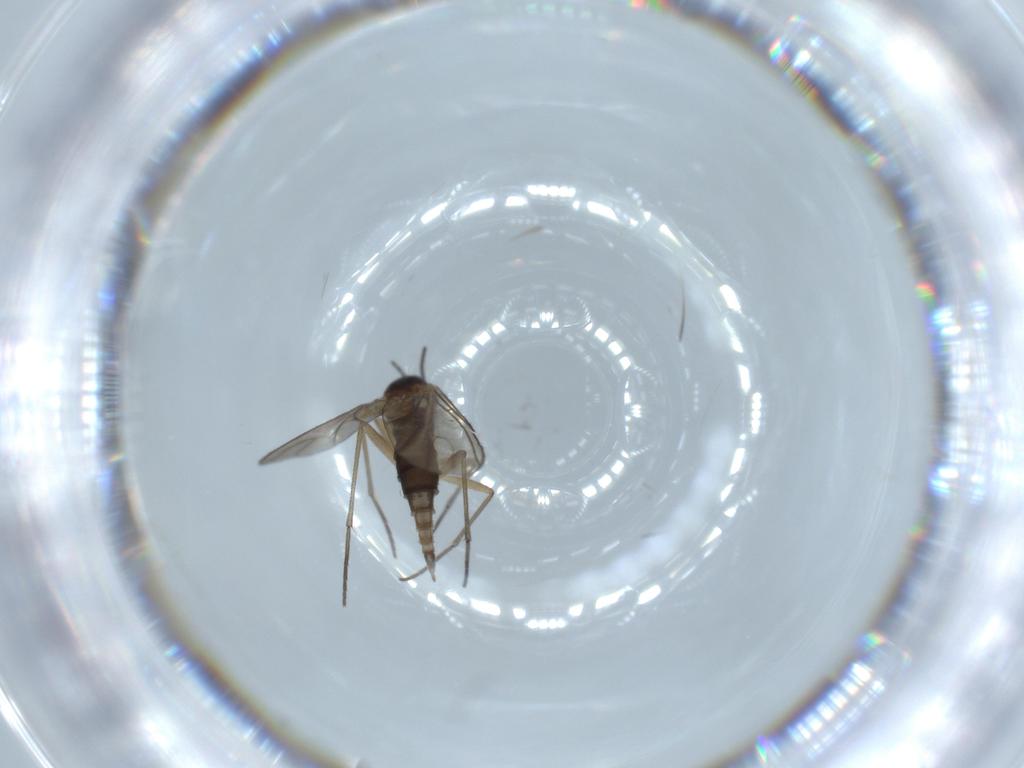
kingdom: Animalia
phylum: Arthropoda
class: Insecta
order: Diptera
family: Sciaridae
